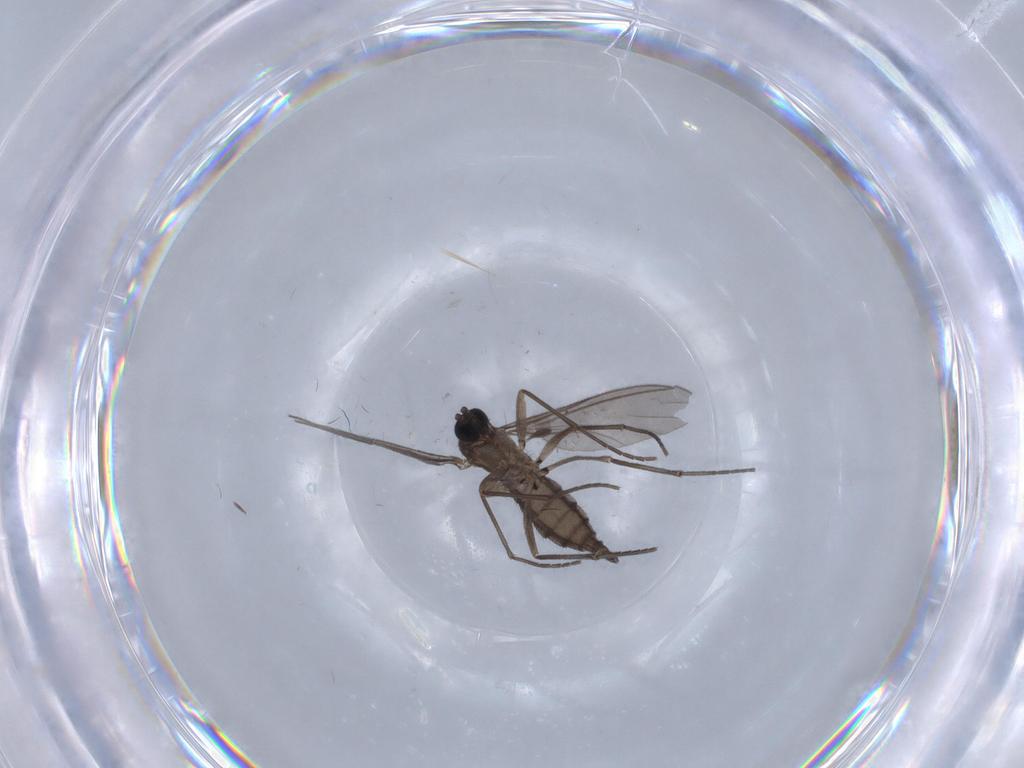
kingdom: Animalia
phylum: Arthropoda
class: Insecta
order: Diptera
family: Sciaridae
